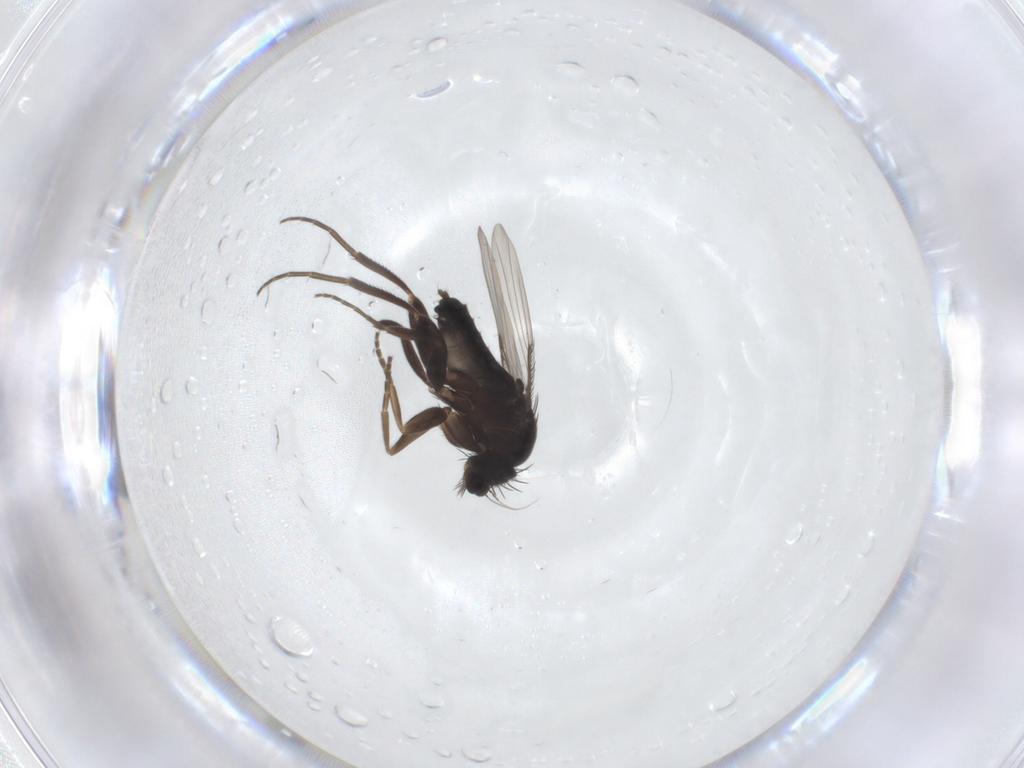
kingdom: Animalia
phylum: Arthropoda
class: Insecta
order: Diptera
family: Phoridae
